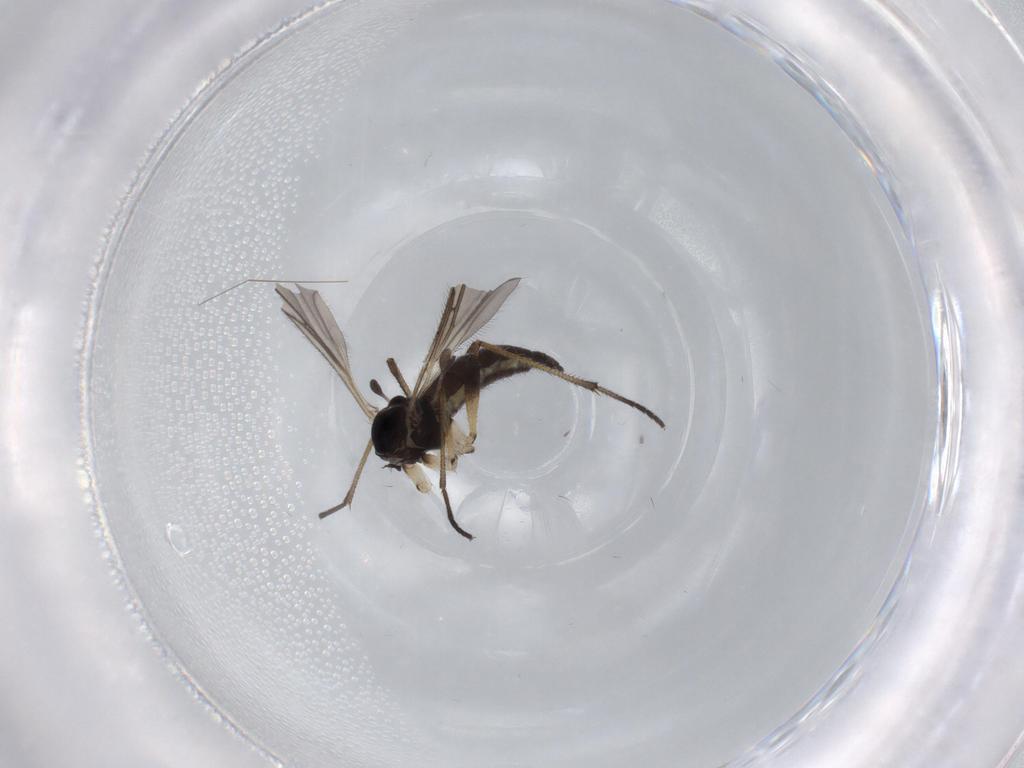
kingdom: Animalia
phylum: Arthropoda
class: Insecta
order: Diptera
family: Sciaridae
